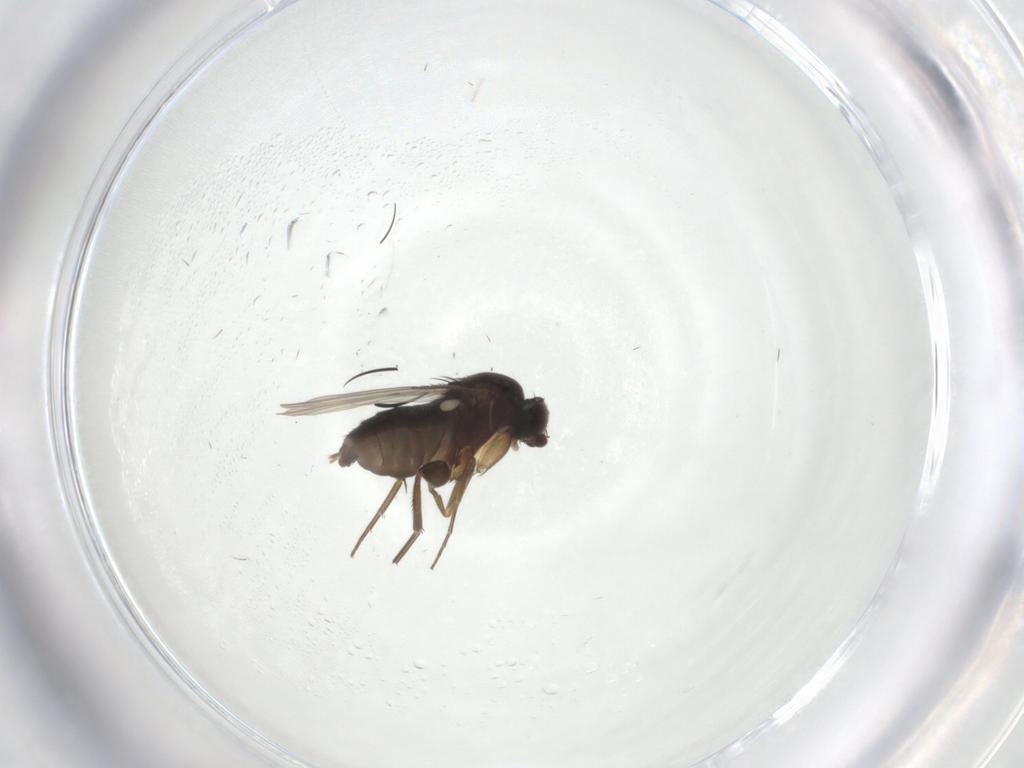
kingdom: Animalia
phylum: Arthropoda
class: Insecta
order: Diptera
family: Phoridae
